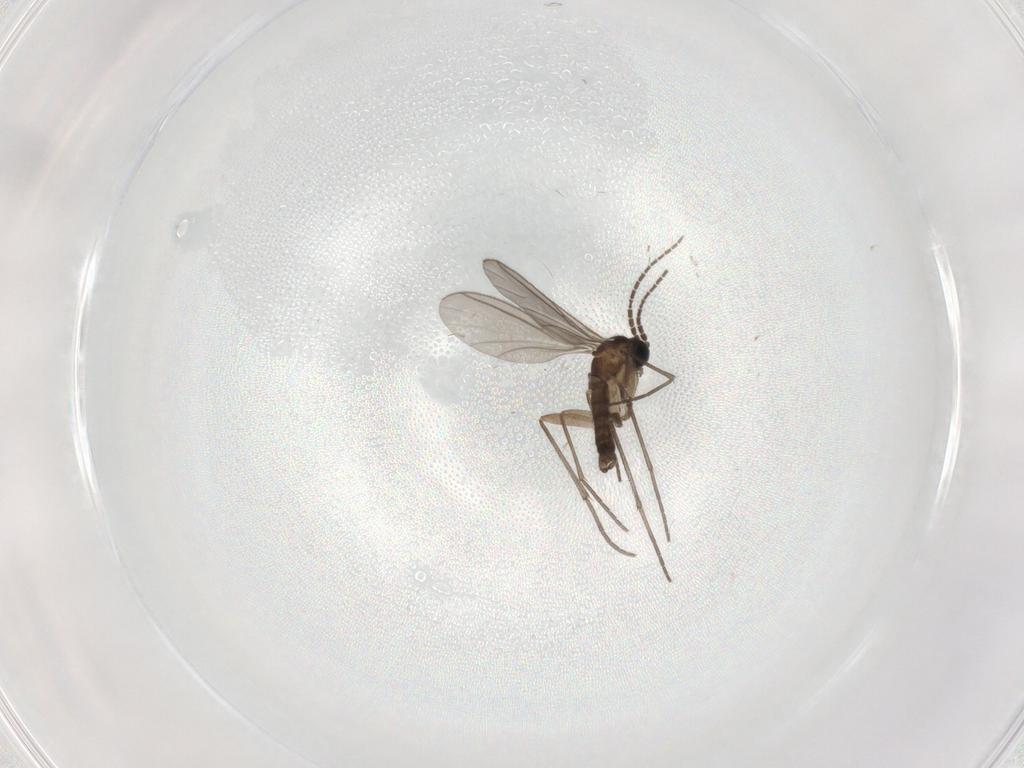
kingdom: Animalia
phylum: Arthropoda
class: Insecta
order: Diptera
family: Sciaridae
